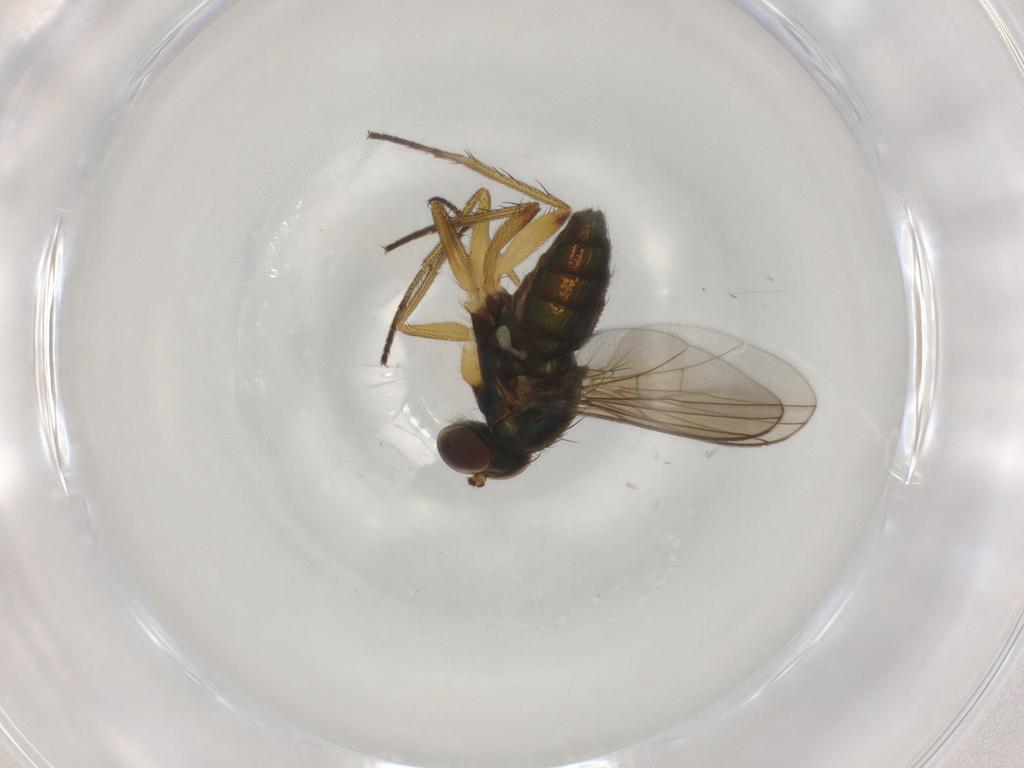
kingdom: Animalia
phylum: Arthropoda
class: Insecta
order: Diptera
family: Dolichopodidae
